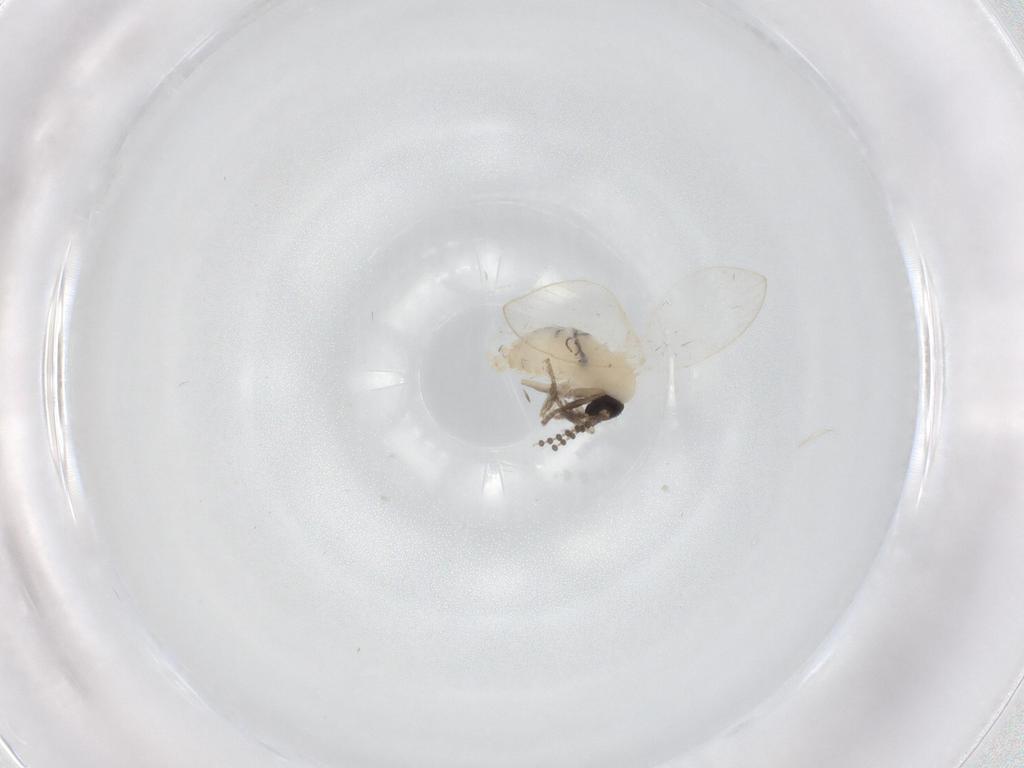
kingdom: Animalia
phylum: Arthropoda
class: Insecta
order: Diptera
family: Psychodidae
